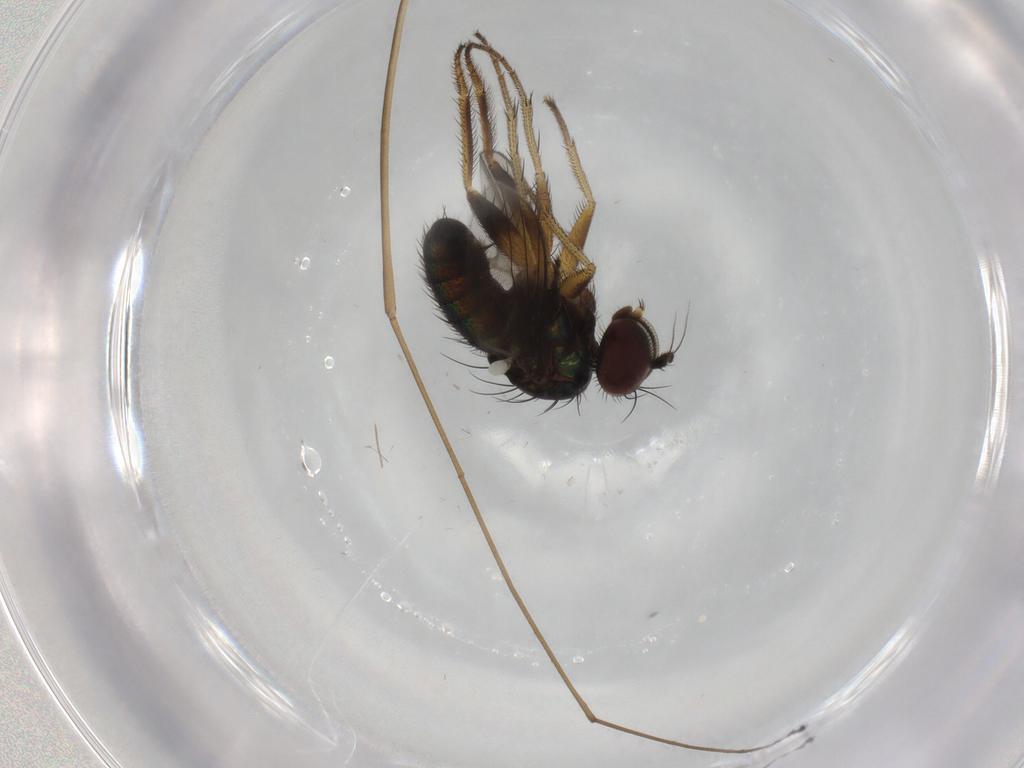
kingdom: Animalia
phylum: Arthropoda
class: Insecta
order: Diptera
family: Dolichopodidae
